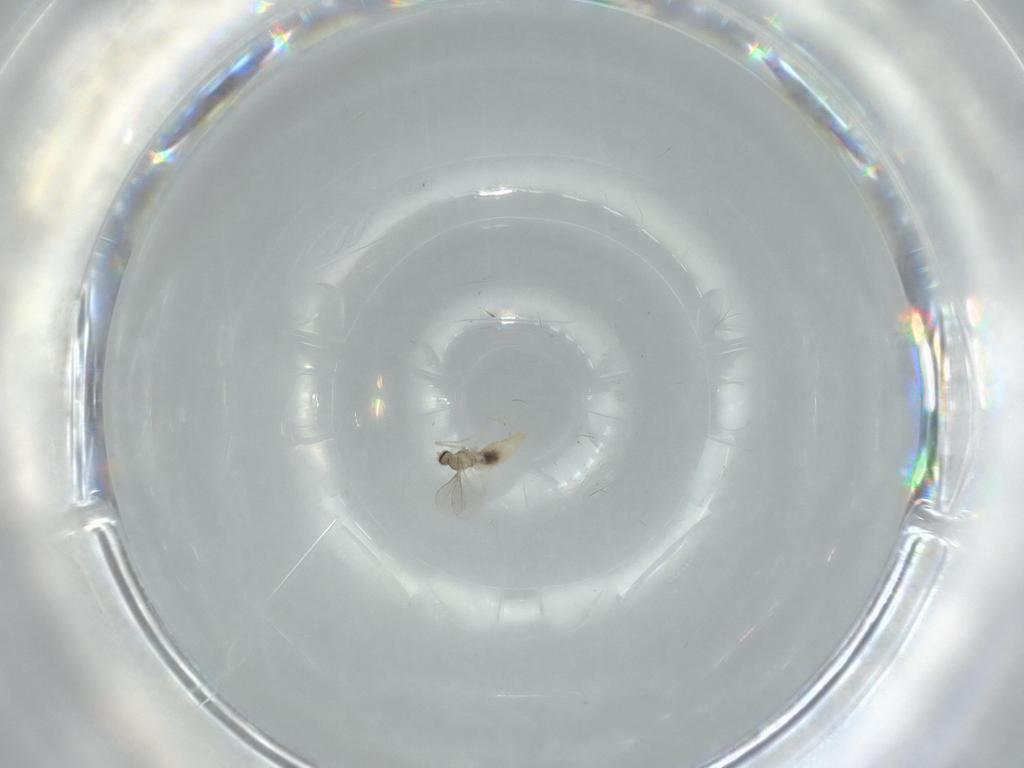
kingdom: Animalia
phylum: Arthropoda
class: Insecta
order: Diptera
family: Cecidomyiidae
